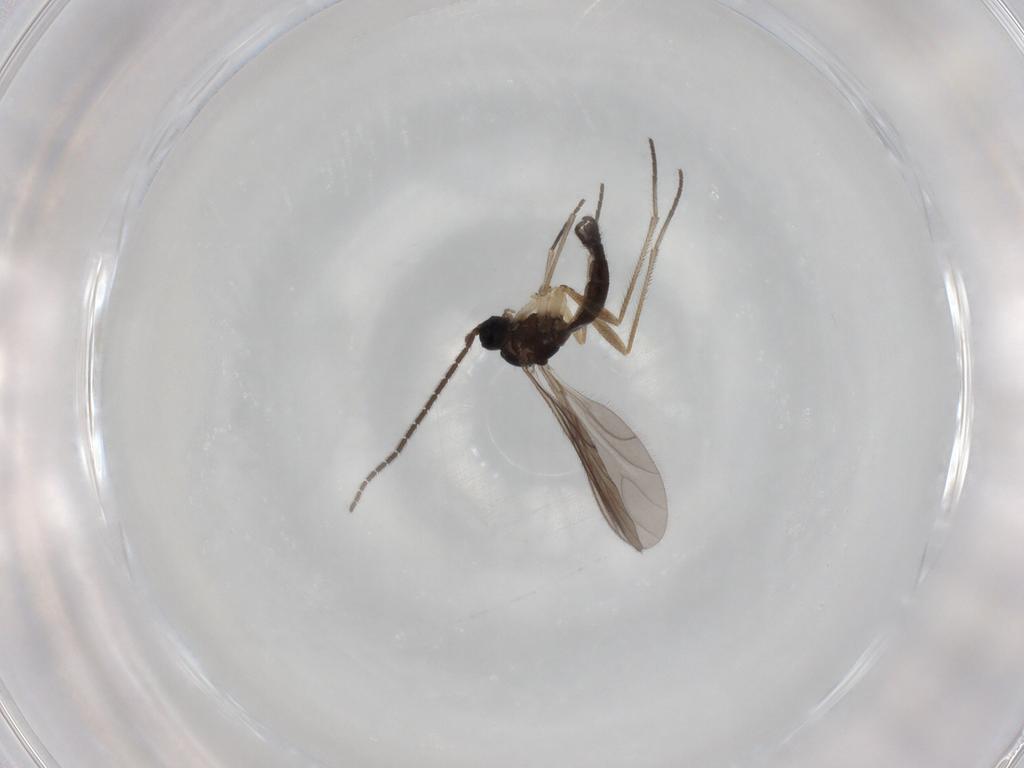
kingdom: Animalia
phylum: Arthropoda
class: Insecta
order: Diptera
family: Sciaridae
